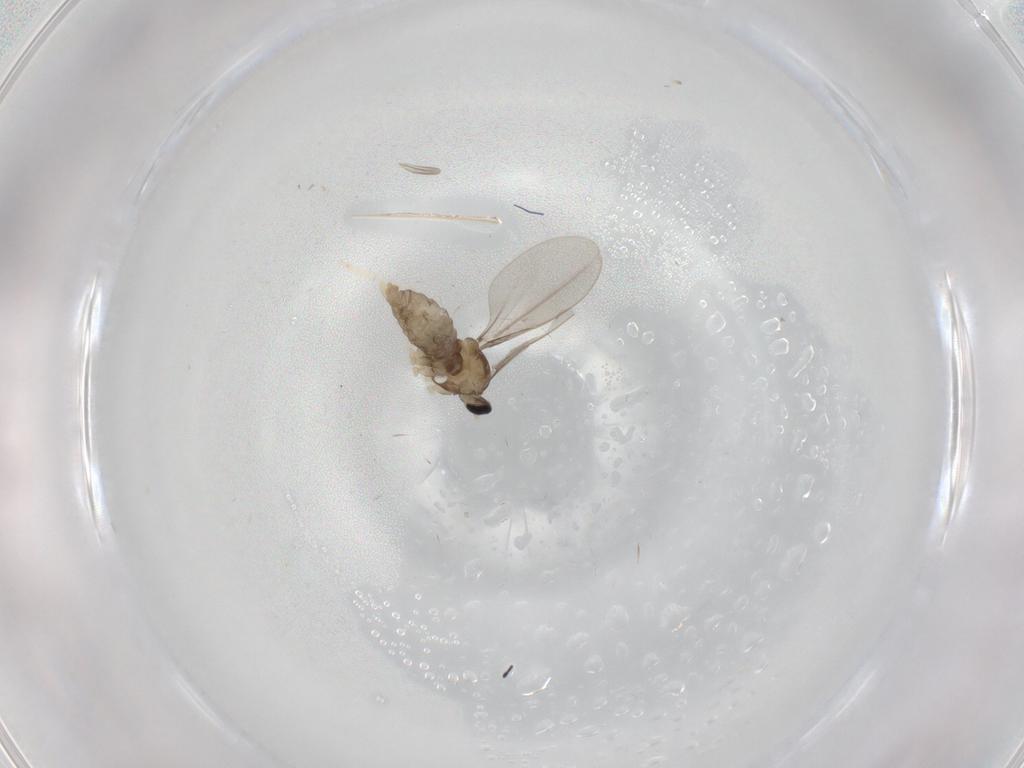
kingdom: Animalia
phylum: Arthropoda
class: Insecta
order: Diptera
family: Cecidomyiidae
